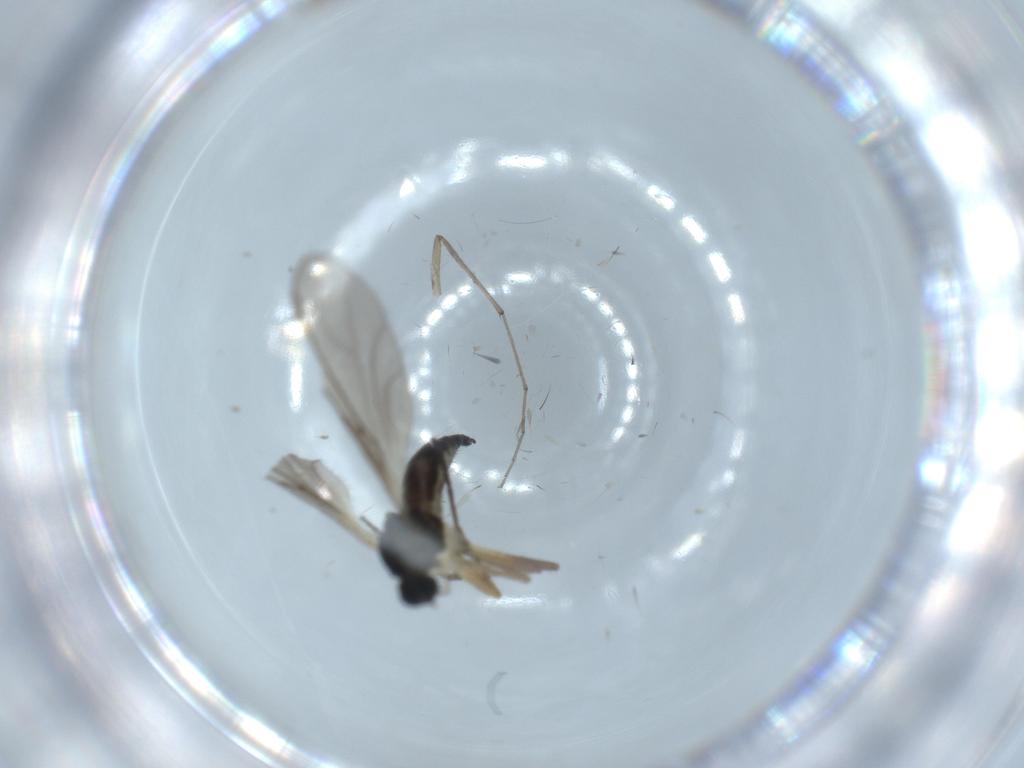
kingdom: Animalia
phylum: Arthropoda
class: Insecta
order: Diptera
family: Sciaridae
